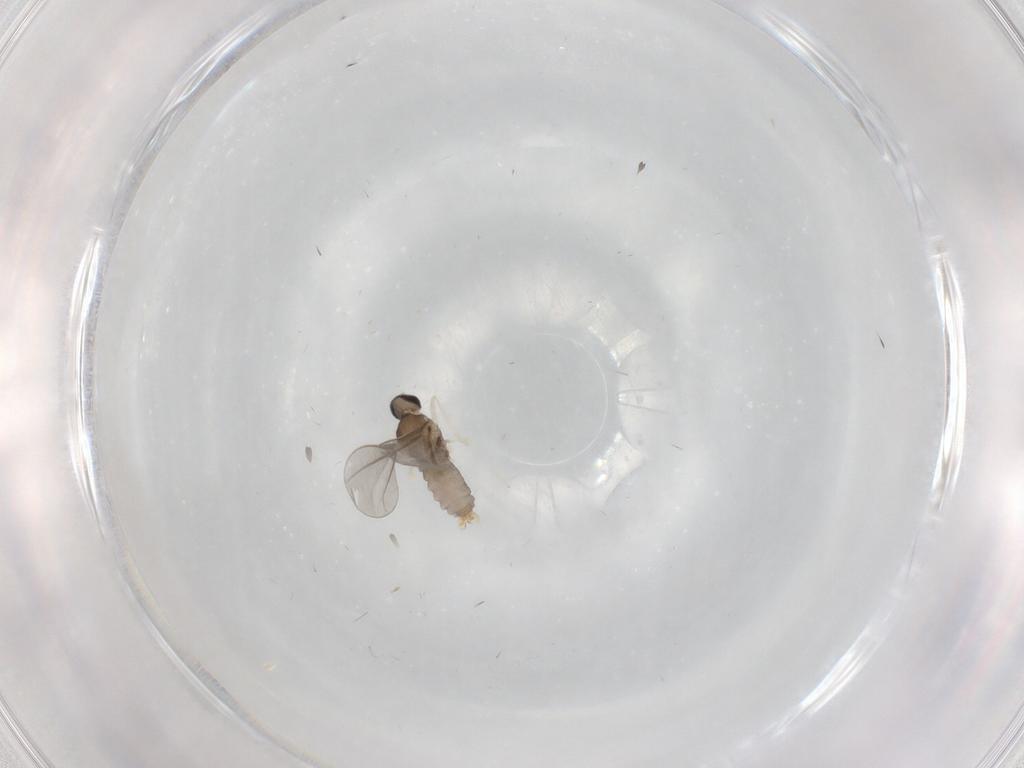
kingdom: Animalia
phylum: Arthropoda
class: Insecta
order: Diptera
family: Cecidomyiidae
